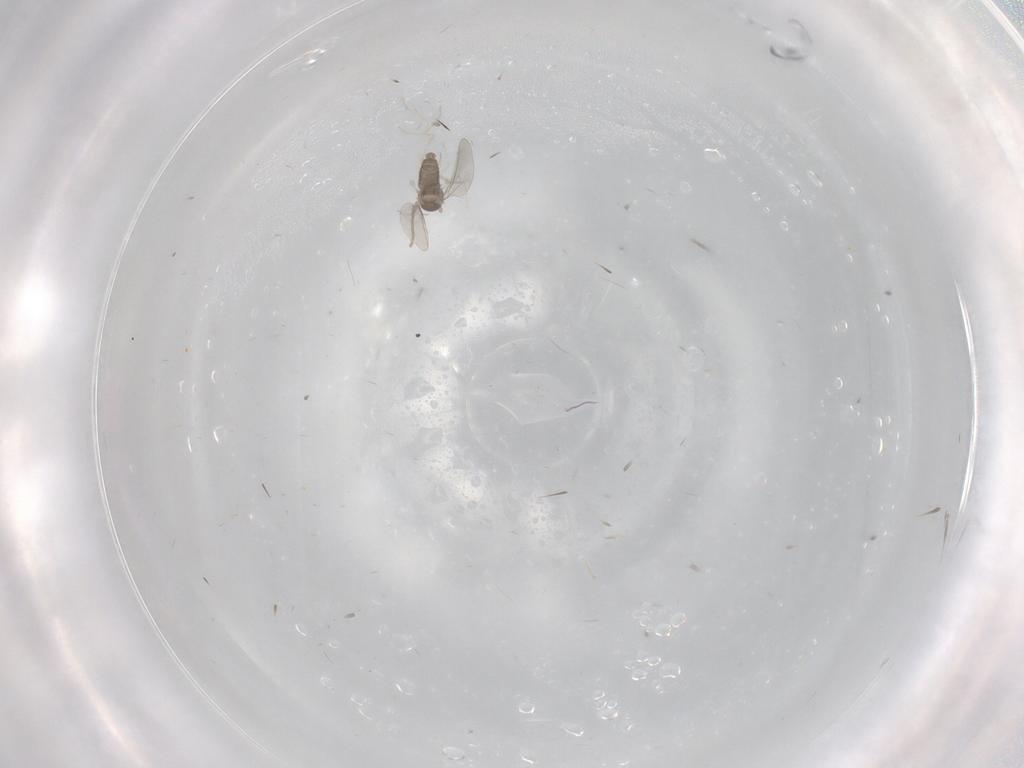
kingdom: Animalia
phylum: Arthropoda
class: Insecta
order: Diptera
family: Cecidomyiidae
